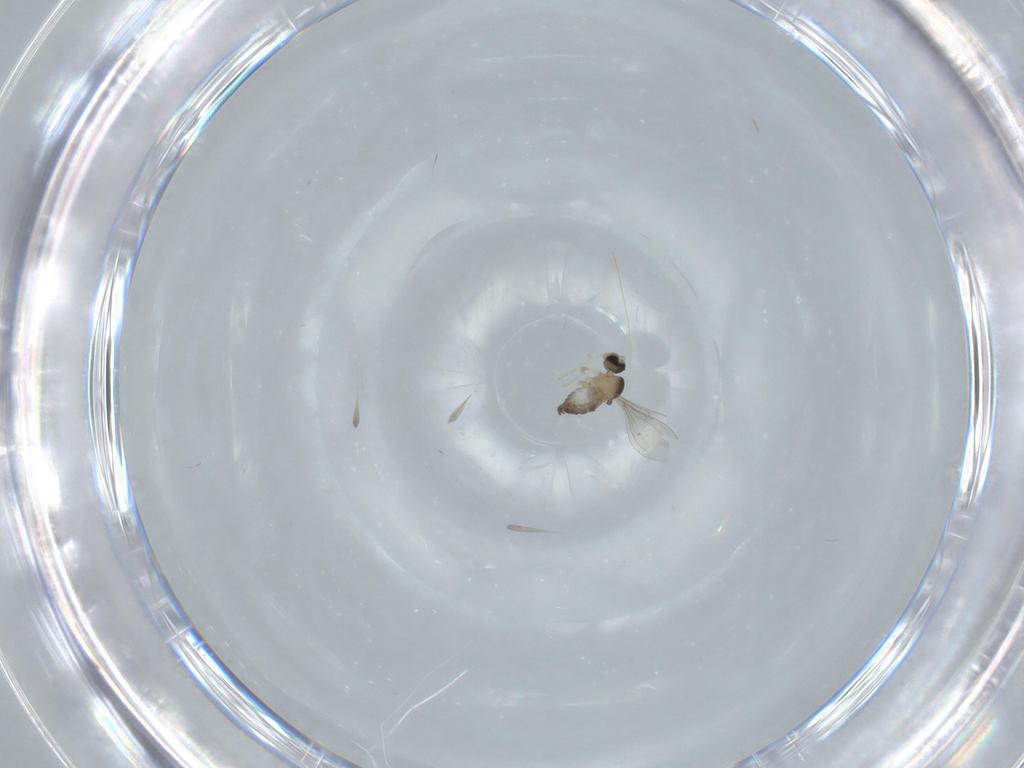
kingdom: Animalia
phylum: Arthropoda
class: Insecta
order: Diptera
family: Cecidomyiidae
